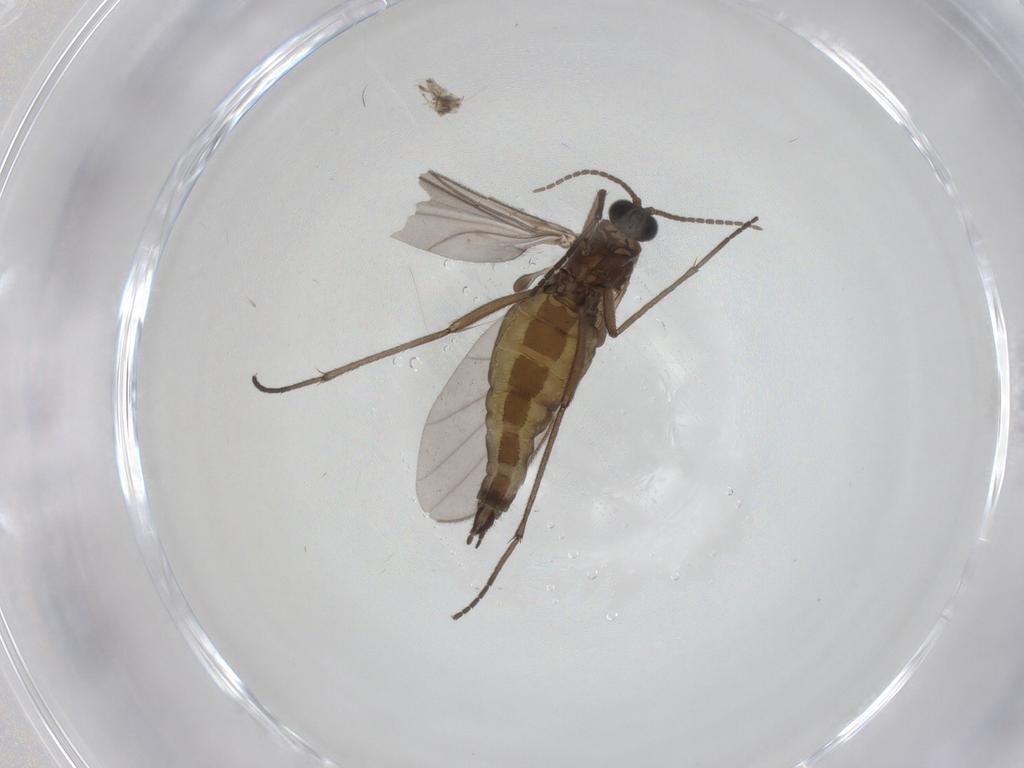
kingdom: Animalia
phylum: Arthropoda
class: Insecta
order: Diptera
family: Sciaridae
